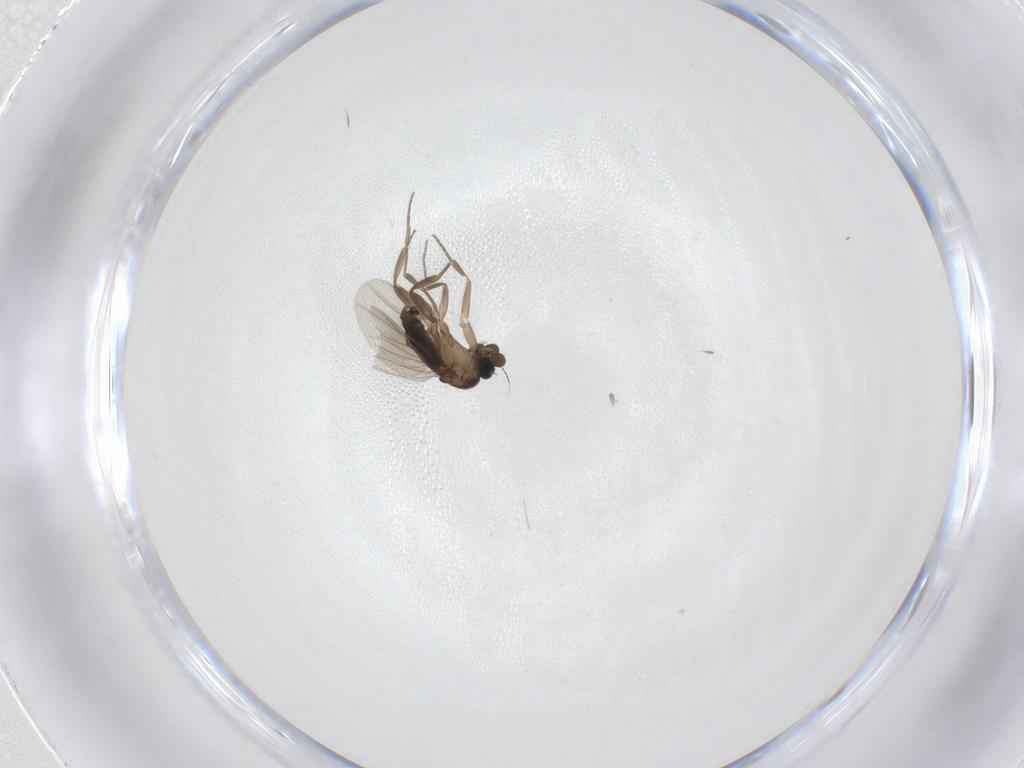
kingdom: Animalia
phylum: Arthropoda
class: Insecta
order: Diptera
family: Phoridae
